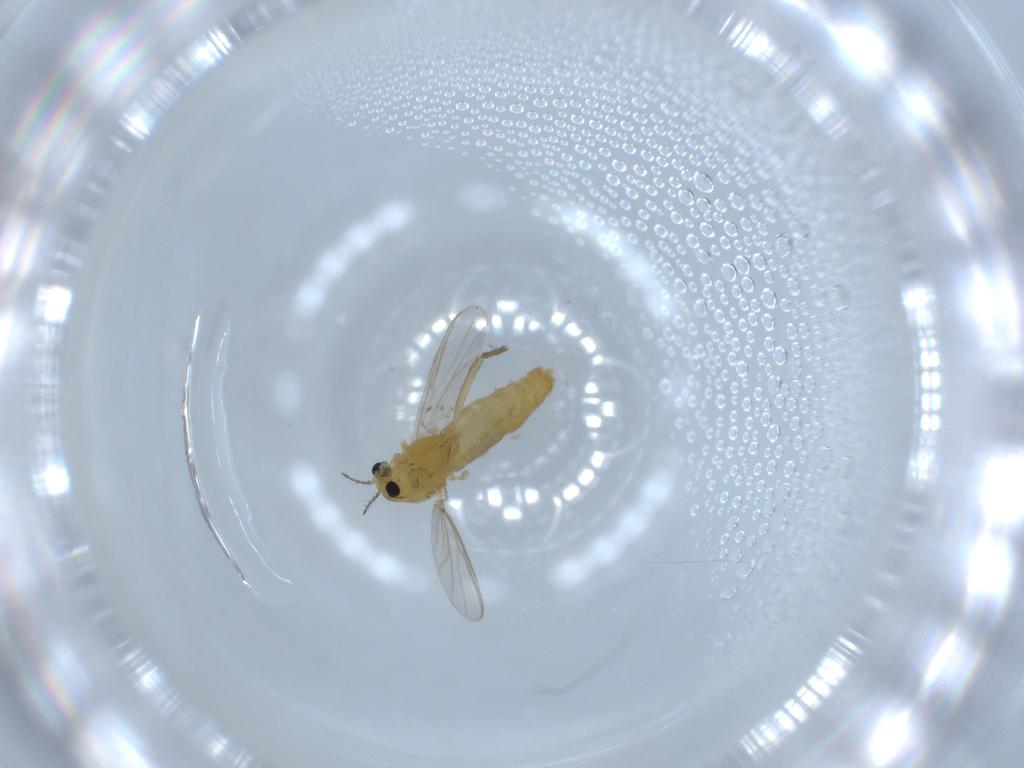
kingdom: Animalia
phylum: Arthropoda
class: Insecta
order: Diptera
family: Chironomidae
